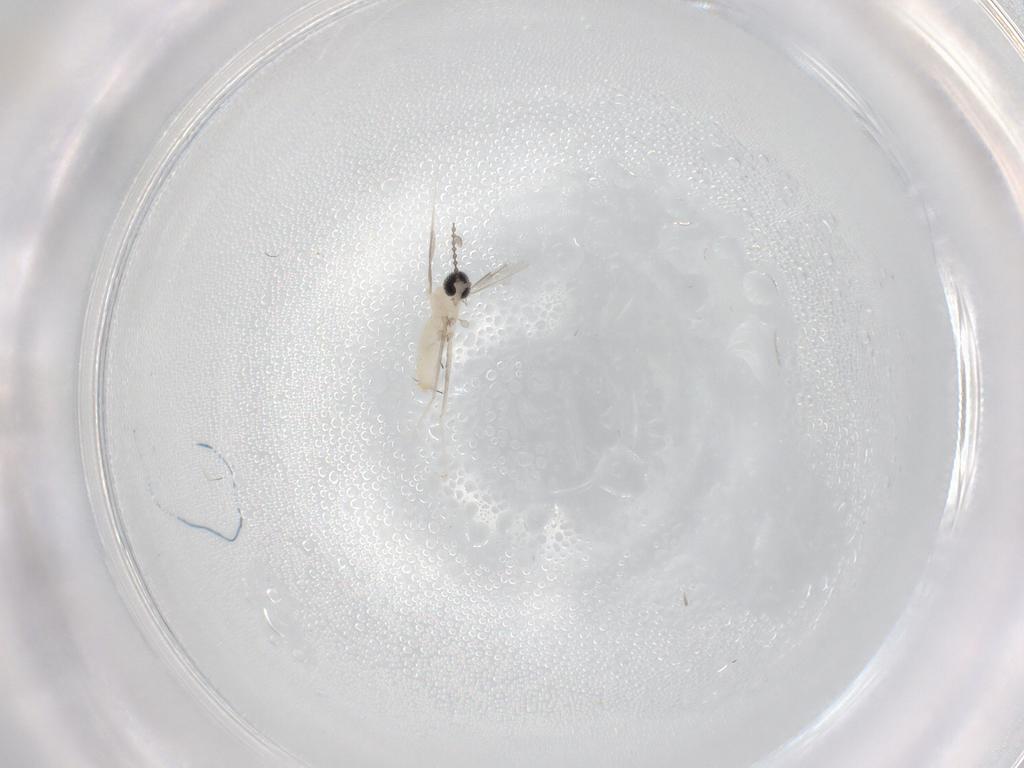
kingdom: Animalia
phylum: Arthropoda
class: Insecta
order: Diptera
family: Cecidomyiidae
